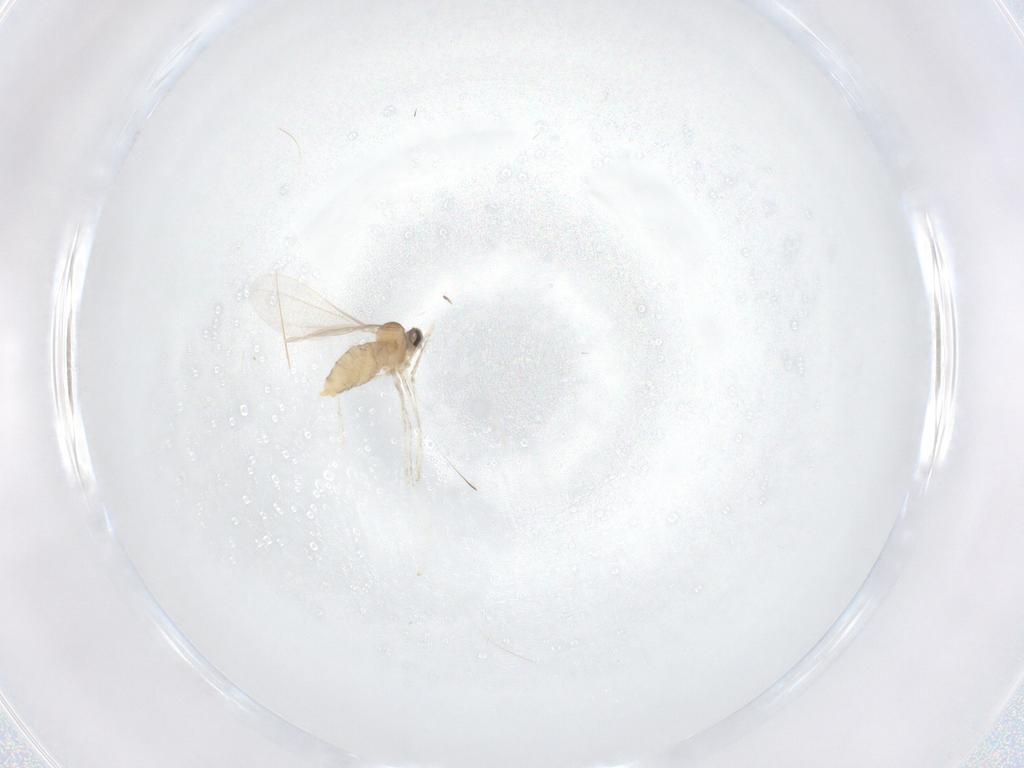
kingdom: Animalia
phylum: Arthropoda
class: Insecta
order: Diptera
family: Cecidomyiidae
